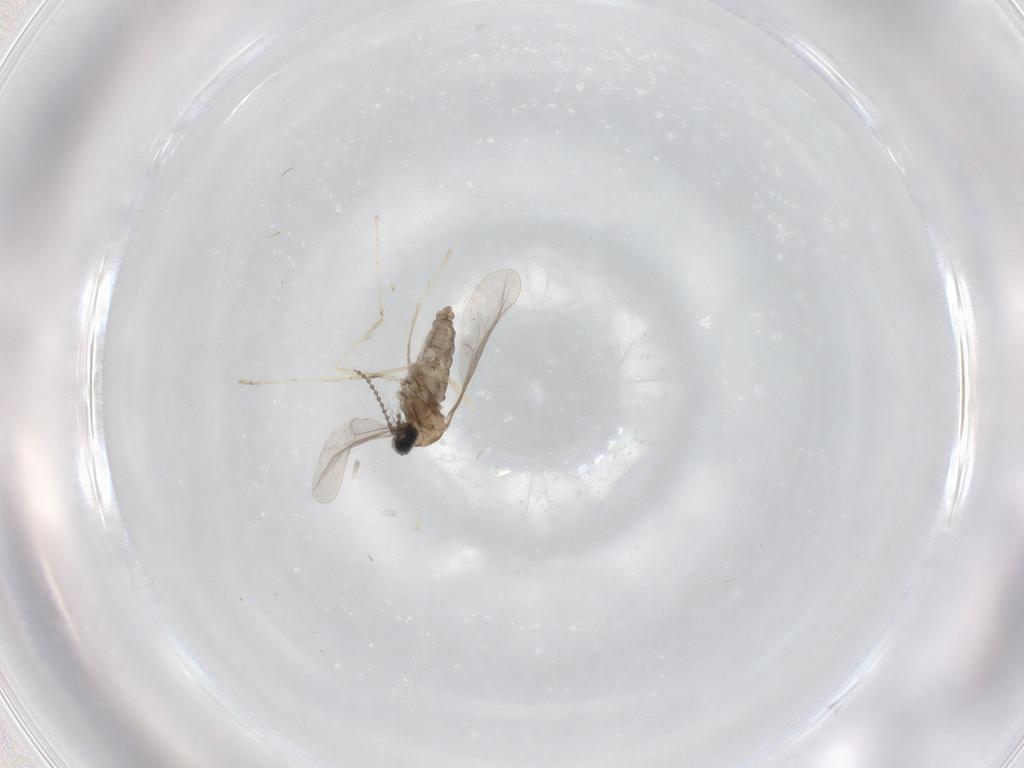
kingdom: Animalia
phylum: Arthropoda
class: Insecta
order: Diptera
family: Cecidomyiidae
